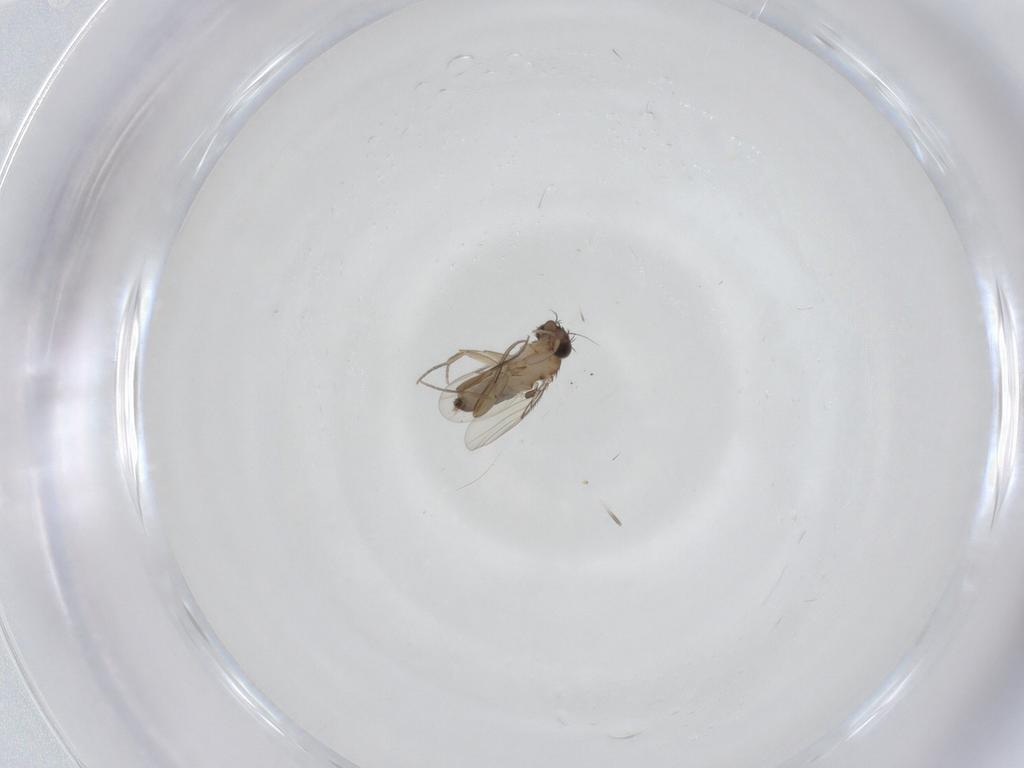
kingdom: Animalia
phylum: Arthropoda
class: Insecta
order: Diptera
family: Phoridae
